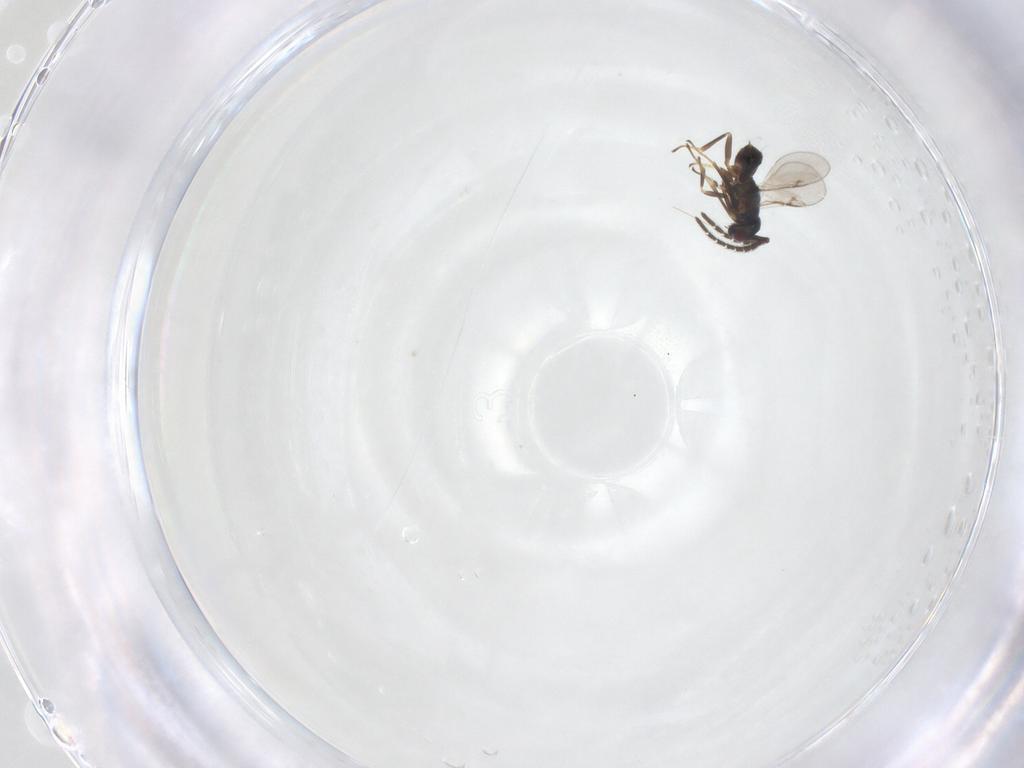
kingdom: Animalia
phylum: Arthropoda
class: Insecta
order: Hymenoptera
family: Encyrtidae
